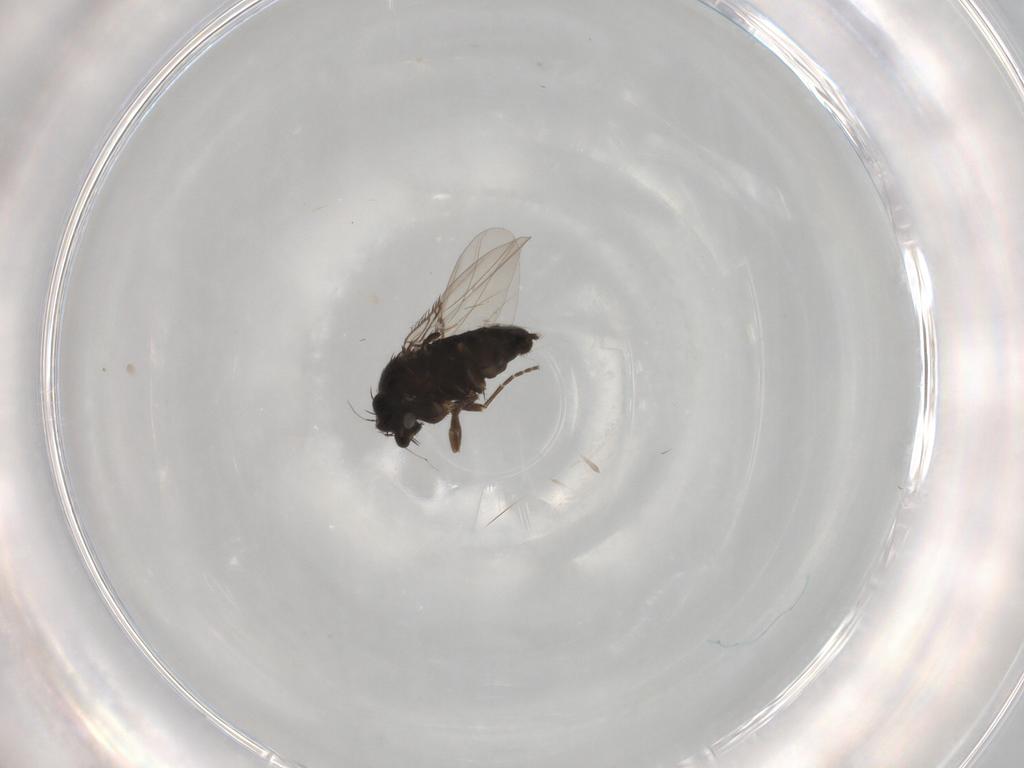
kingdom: Animalia
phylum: Arthropoda
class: Insecta
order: Diptera
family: Phoridae
